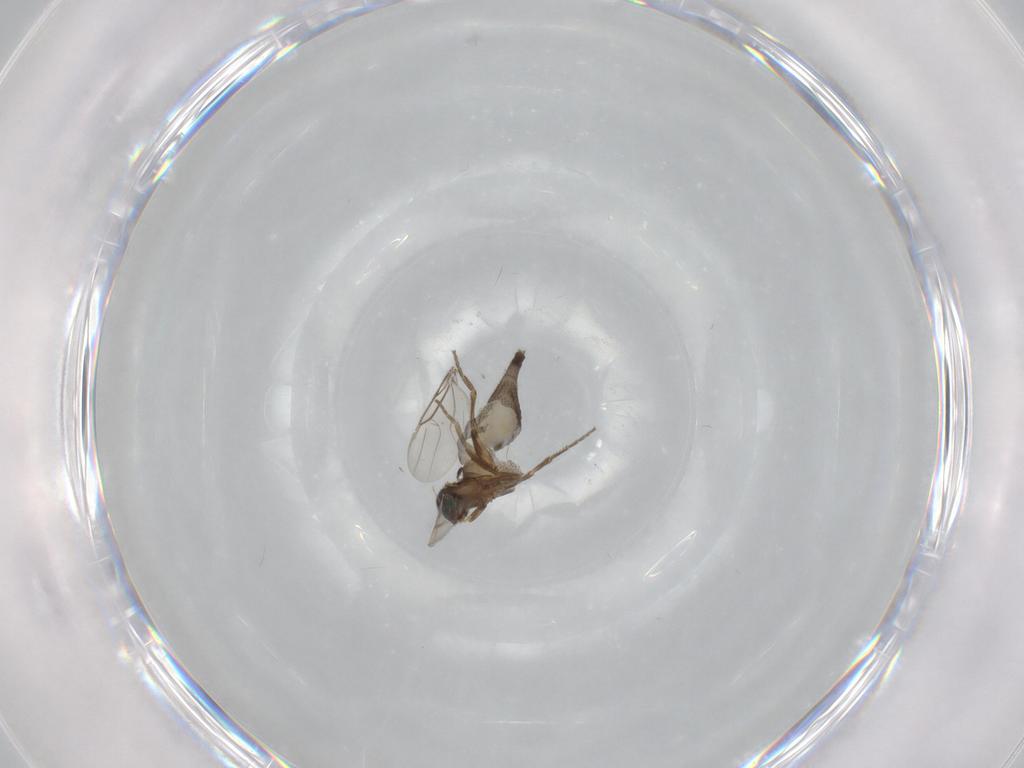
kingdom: Animalia
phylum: Arthropoda
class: Insecta
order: Diptera
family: Phoridae
